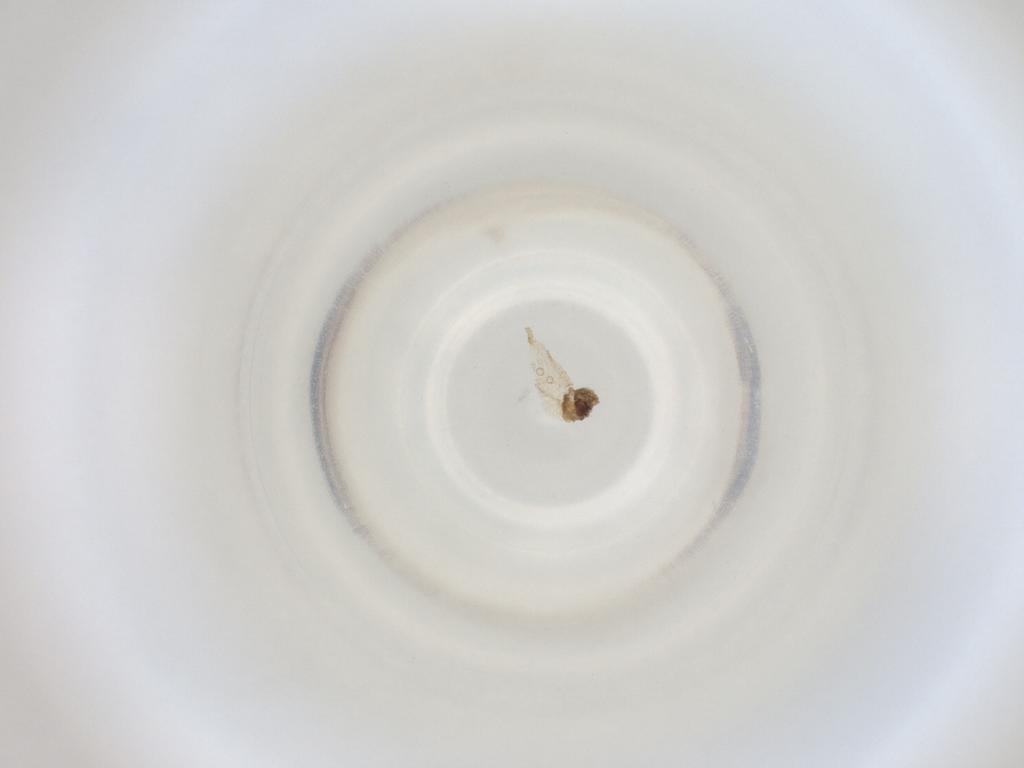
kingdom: Animalia
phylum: Arthropoda
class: Insecta
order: Diptera
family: Cecidomyiidae
